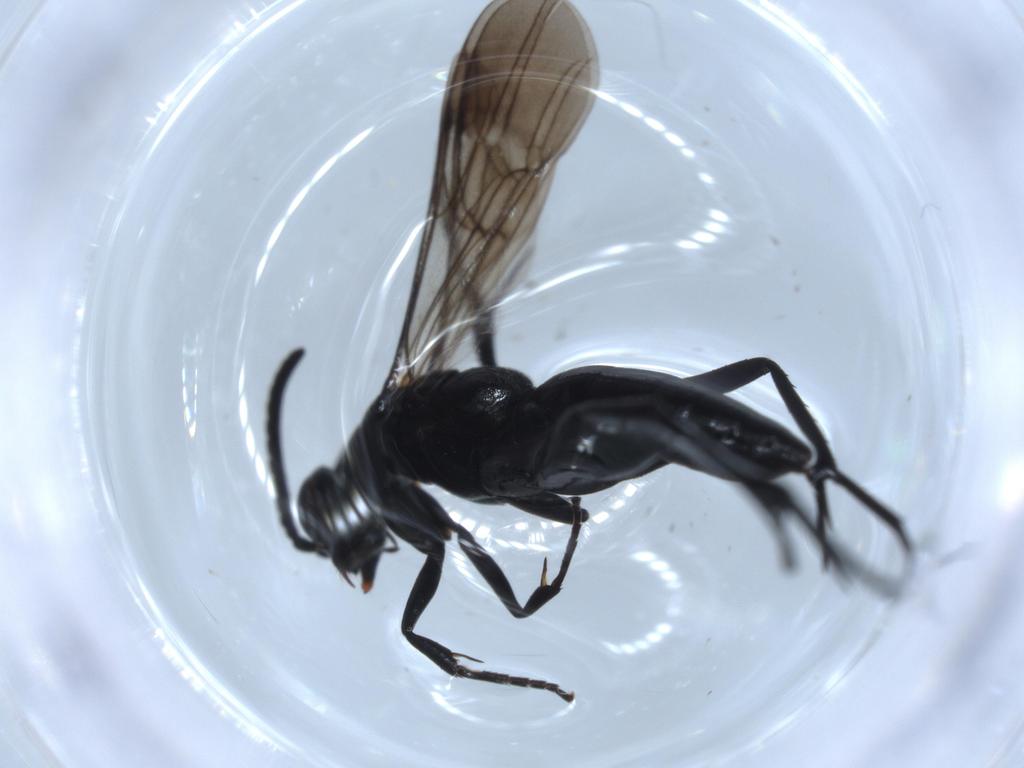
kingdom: Animalia
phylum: Arthropoda
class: Insecta
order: Hymenoptera
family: Pompilidae
